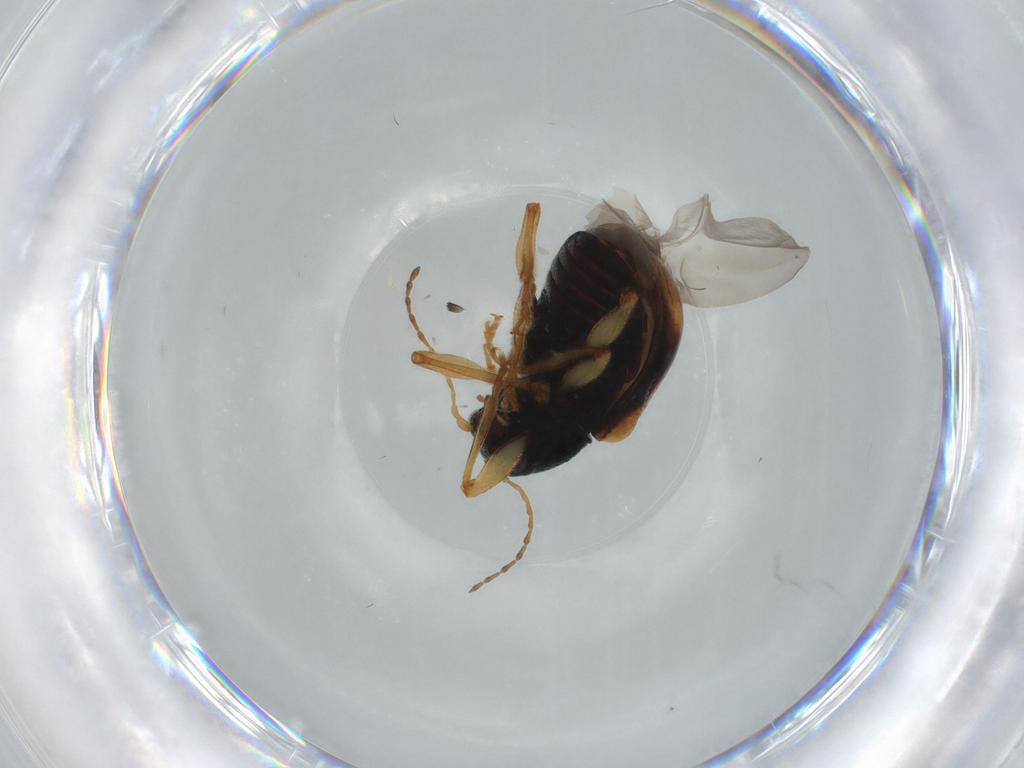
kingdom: Animalia
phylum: Arthropoda
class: Insecta
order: Coleoptera
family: Chrysomelidae
